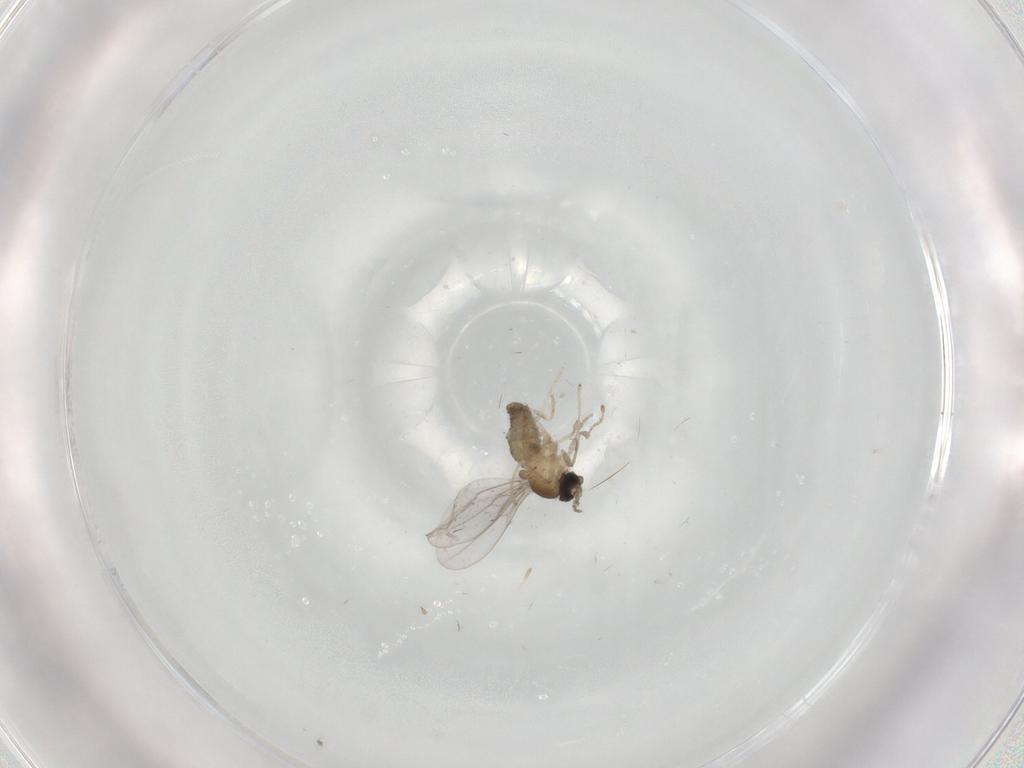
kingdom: Animalia
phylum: Arthropoda
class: Insecta
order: Diptera
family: Cecidomyiidae
